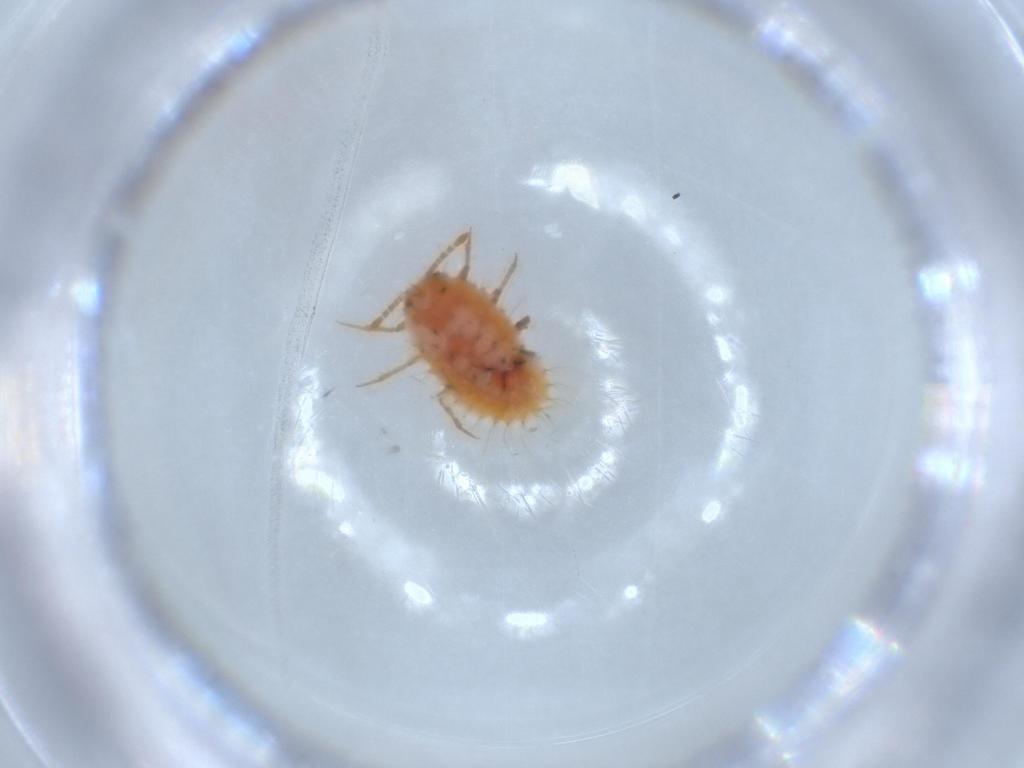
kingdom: Animalia
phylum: Arthropoda
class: Insecta
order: Hemiptera
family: Coccoidea_incertae_sedis
